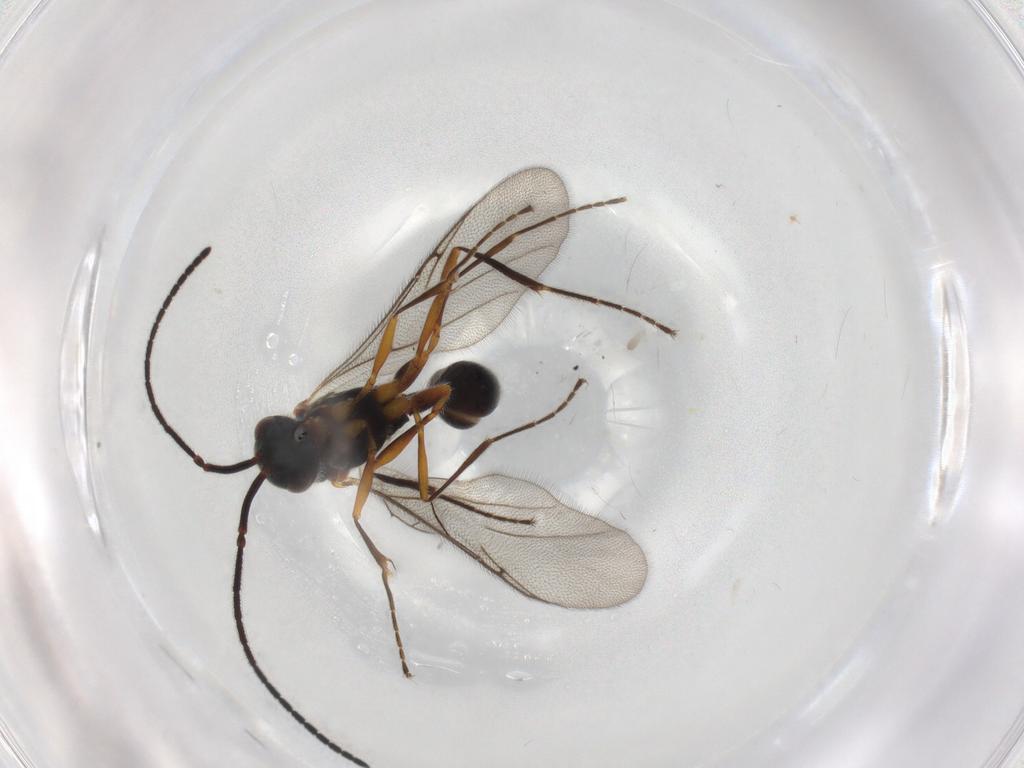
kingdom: Animalia
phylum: Arthropoda
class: Insecta
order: Hymenoptera
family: Diapriidae
